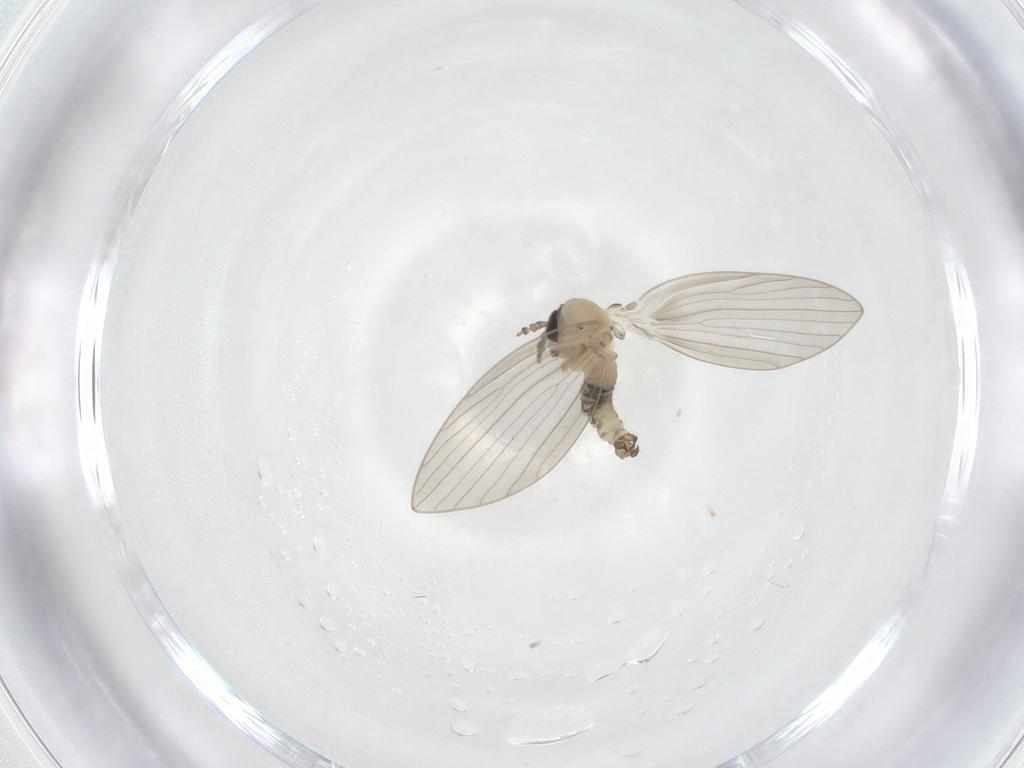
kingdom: Animalia
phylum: Arthropoda
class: Insecta
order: Diptera
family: Psychodidae
